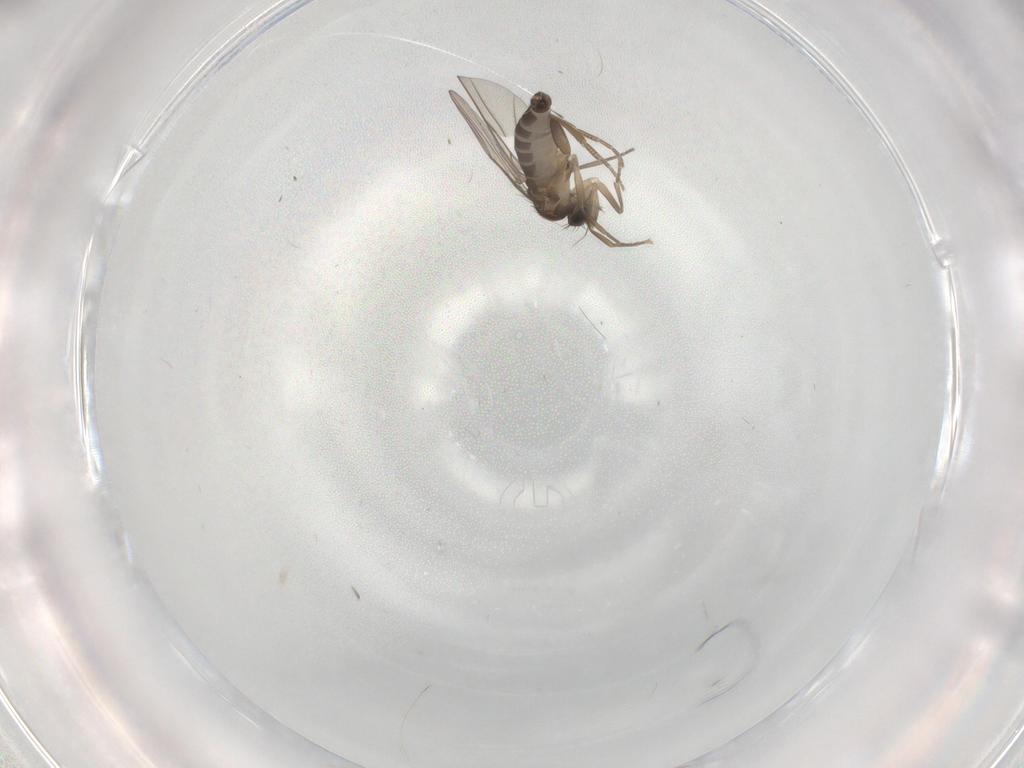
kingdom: Animalia
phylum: Arthropoda
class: Insecta
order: Diptera
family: Phoridae
